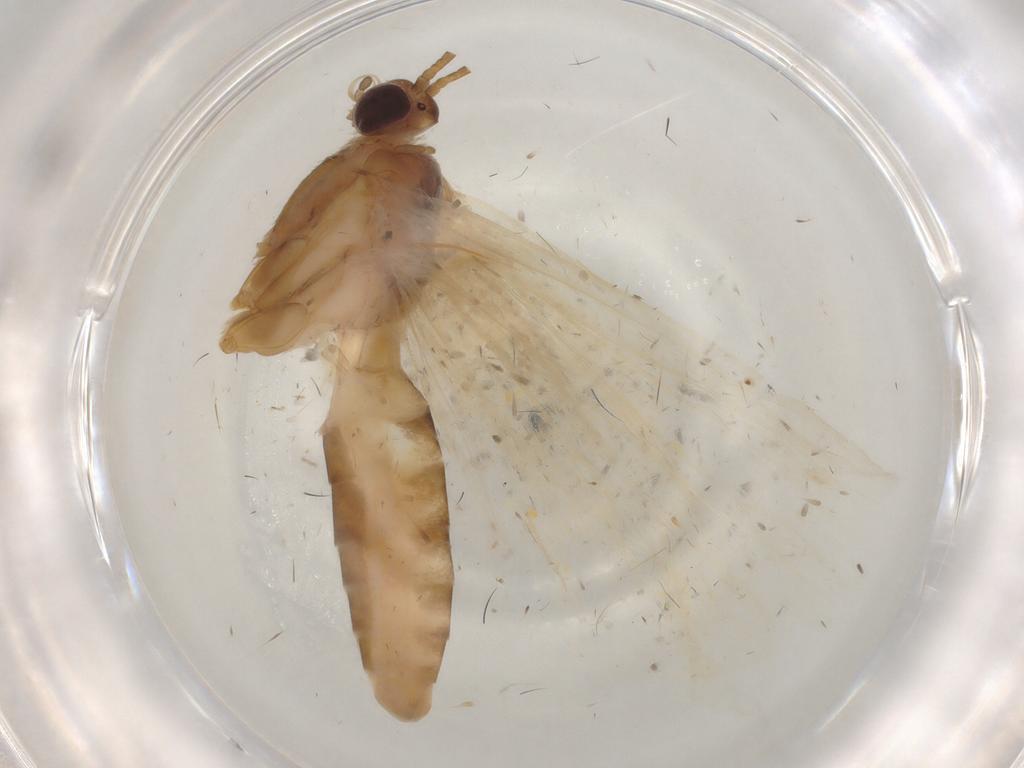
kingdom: Animalia
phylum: Arthropoda
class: Insecta
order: Lepidoptera
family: Crambidae
